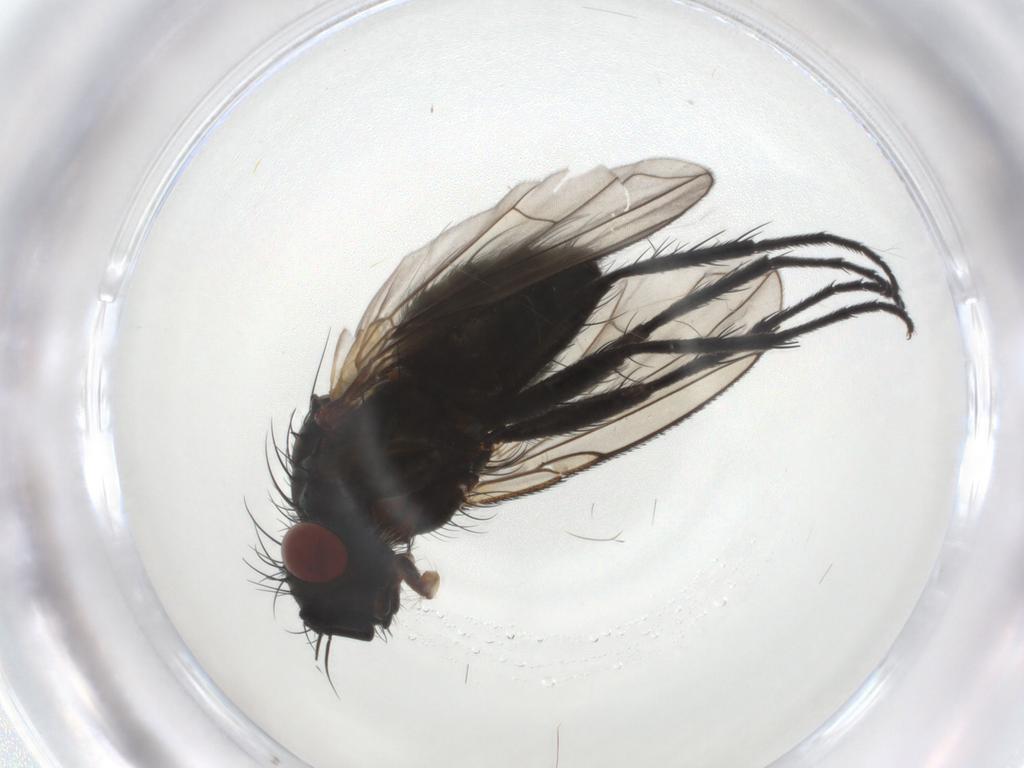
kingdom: Animalia
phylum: Arthropoda
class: Insecta
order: Diptera
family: Tachinidae
